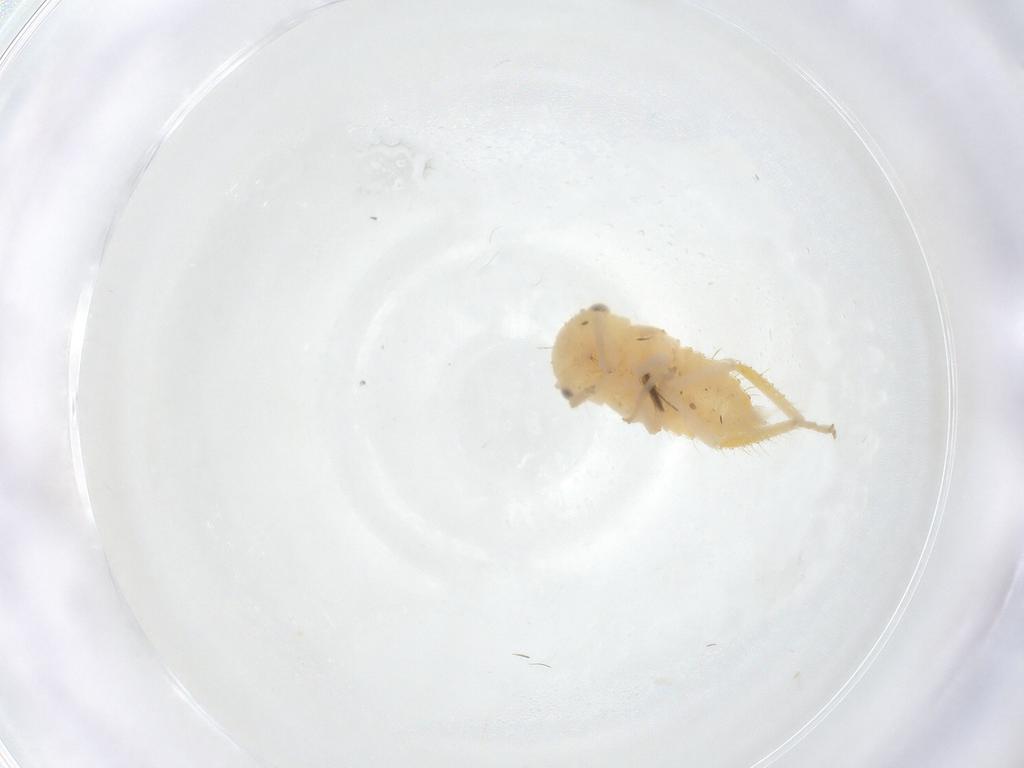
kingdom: Animalia
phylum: Arthropoda
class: Insecta
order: Hemiptera
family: Cicadellidae
